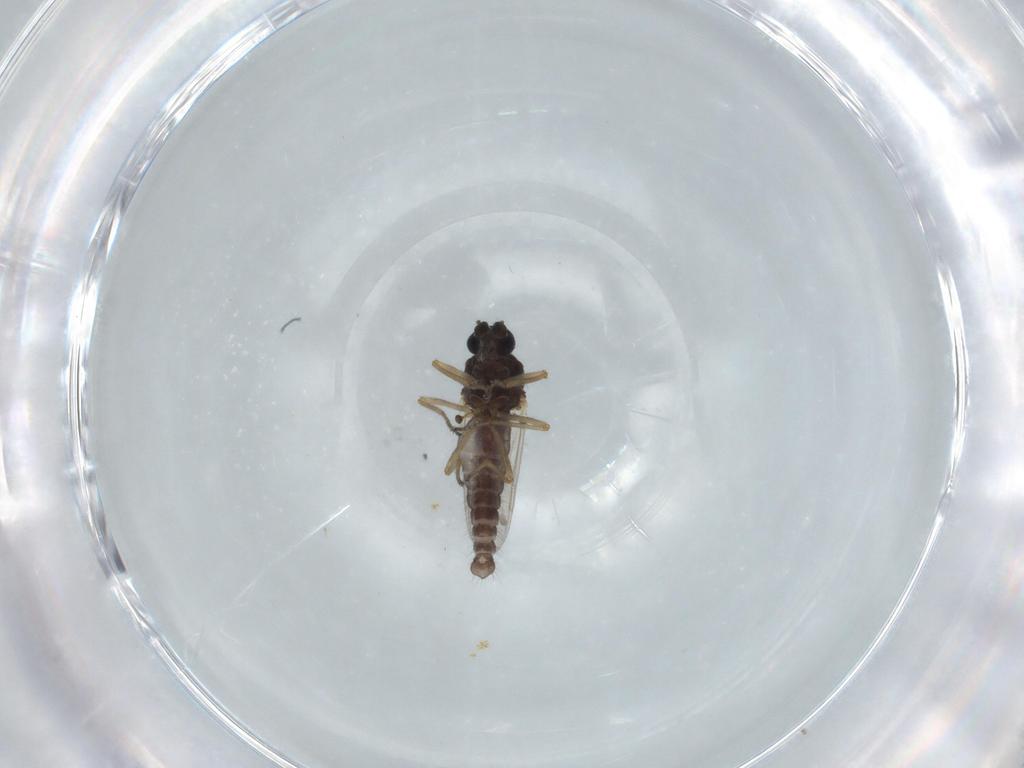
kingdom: Animalia
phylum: Arthropoda
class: Insecta
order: Diptera
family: Ceratopogonidae
